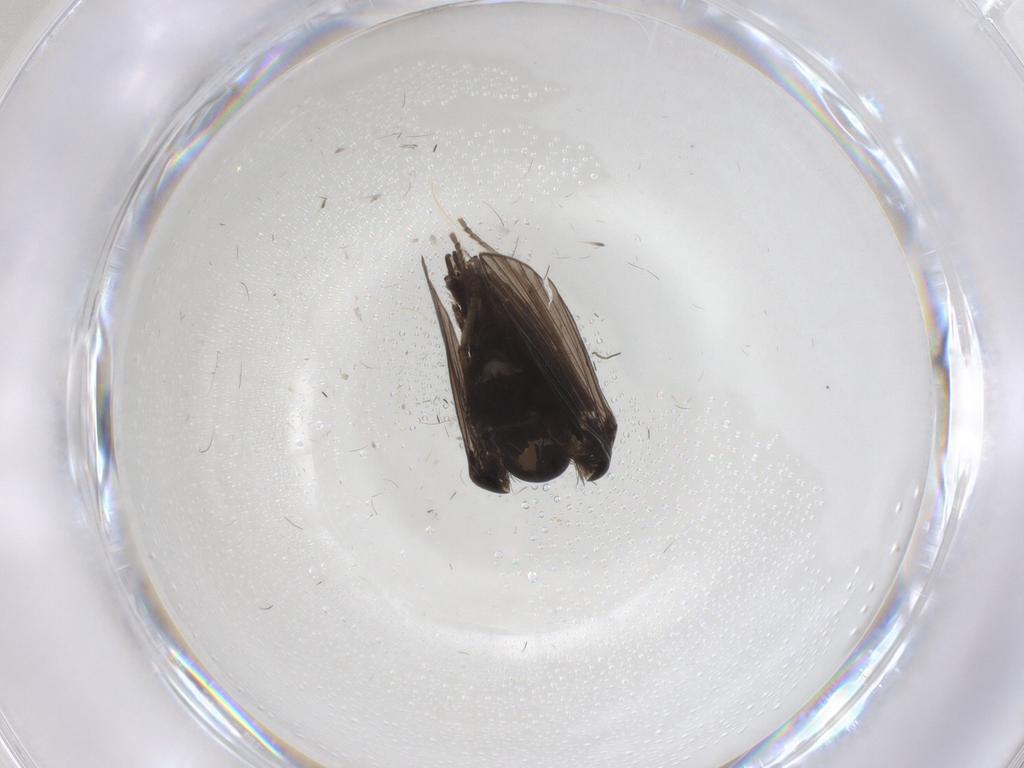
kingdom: Animalia
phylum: Arthropoda
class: Insecta
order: Diptera
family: Psychodidae
